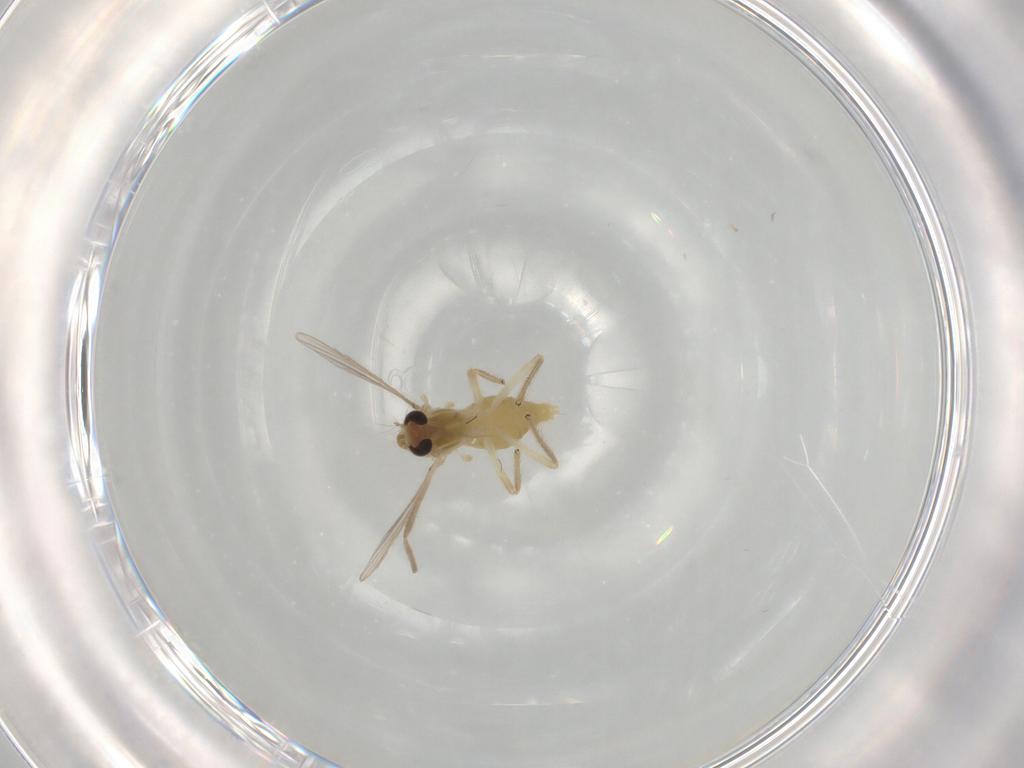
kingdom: Animalia
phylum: Arthropoda
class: Insecta
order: Diptera
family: Chironomidae
